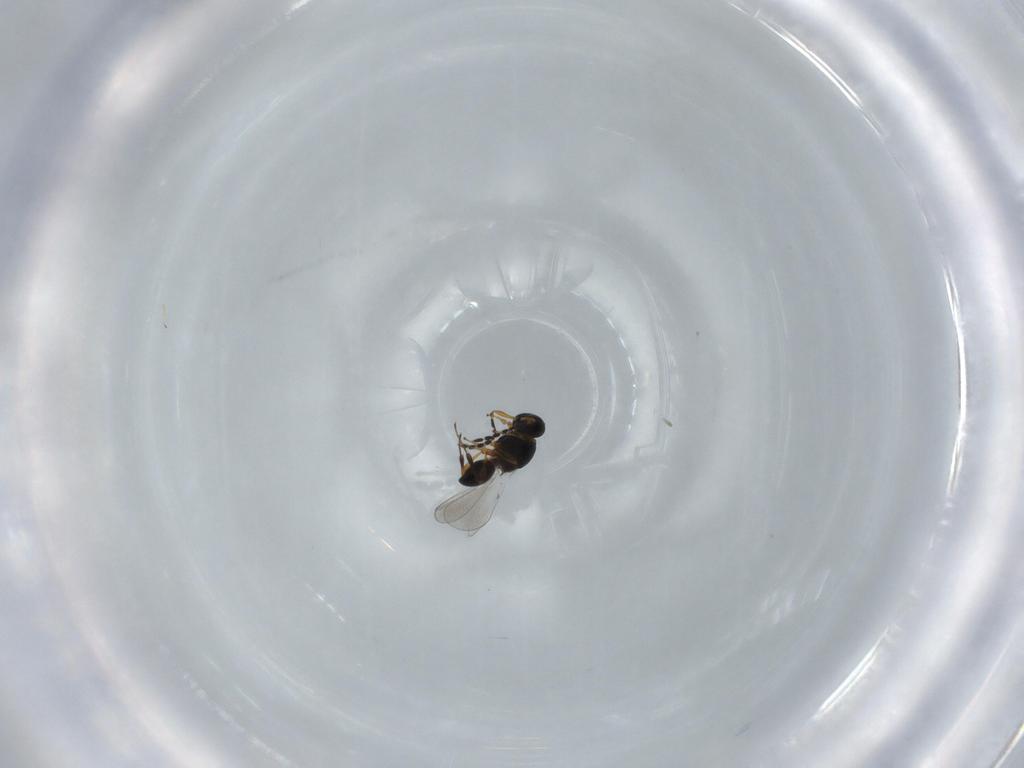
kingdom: Animalia
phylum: Arthropoda
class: Insecta
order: Hymenoptera
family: Platygastridae
